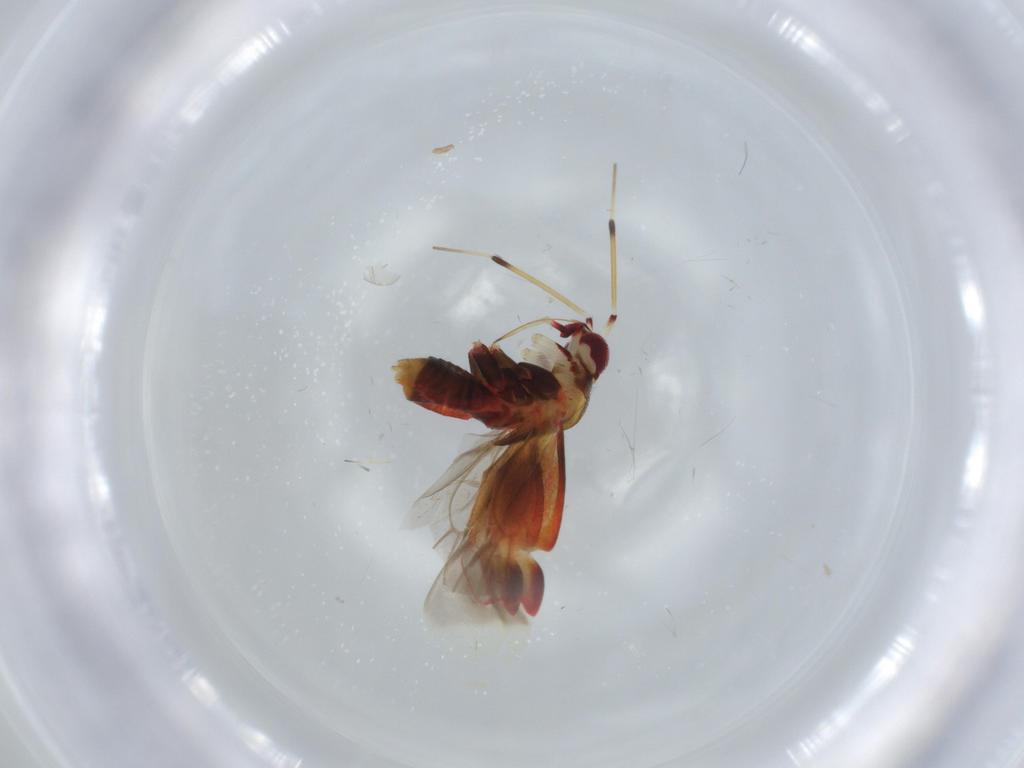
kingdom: Animalia
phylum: Arthropoda
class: Insecta
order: Hemiptera
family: Miridae
